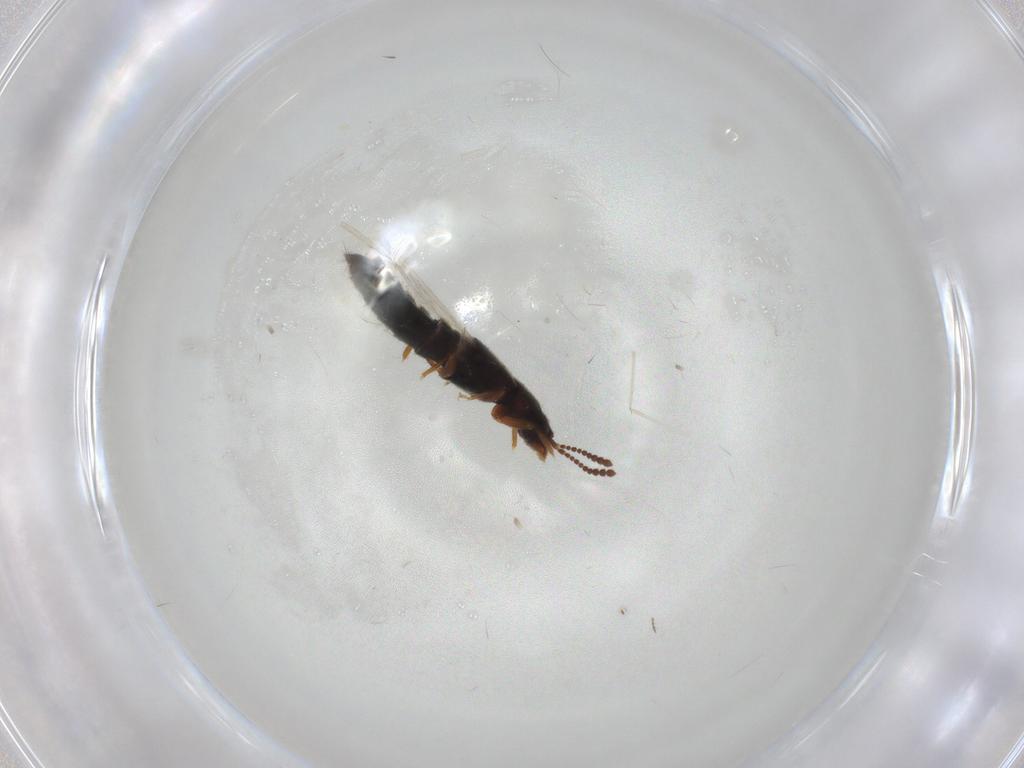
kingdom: Animalia
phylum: Arthropoda
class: Insecta
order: Coleoptera
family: Staphylinidae
